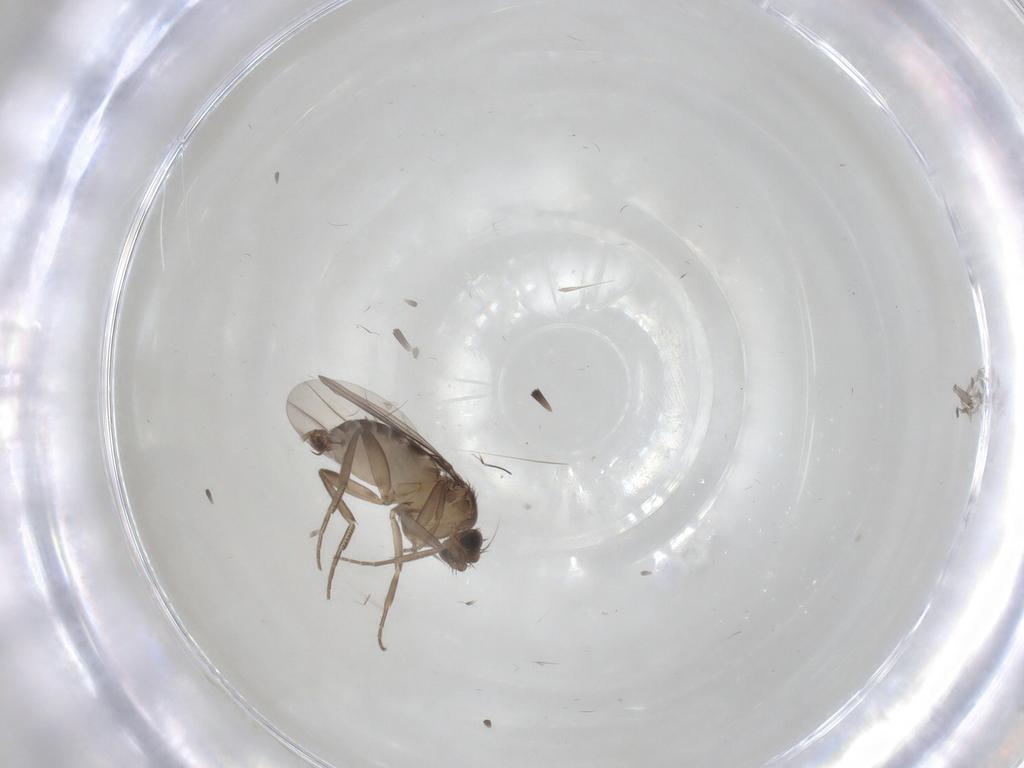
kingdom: Animalia
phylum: Arthropoda
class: Insecta
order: Diptera
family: Phoridae
